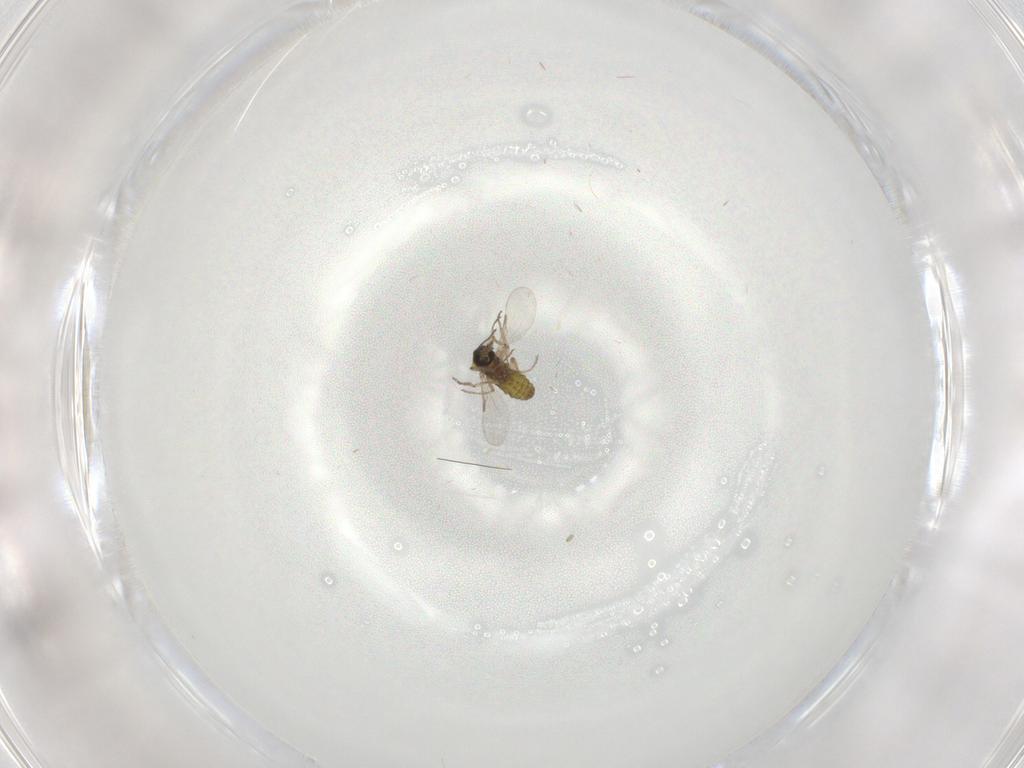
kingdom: Animalia
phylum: Arthropoda
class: Insecta
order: Diptera
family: Ceratopogonidae
